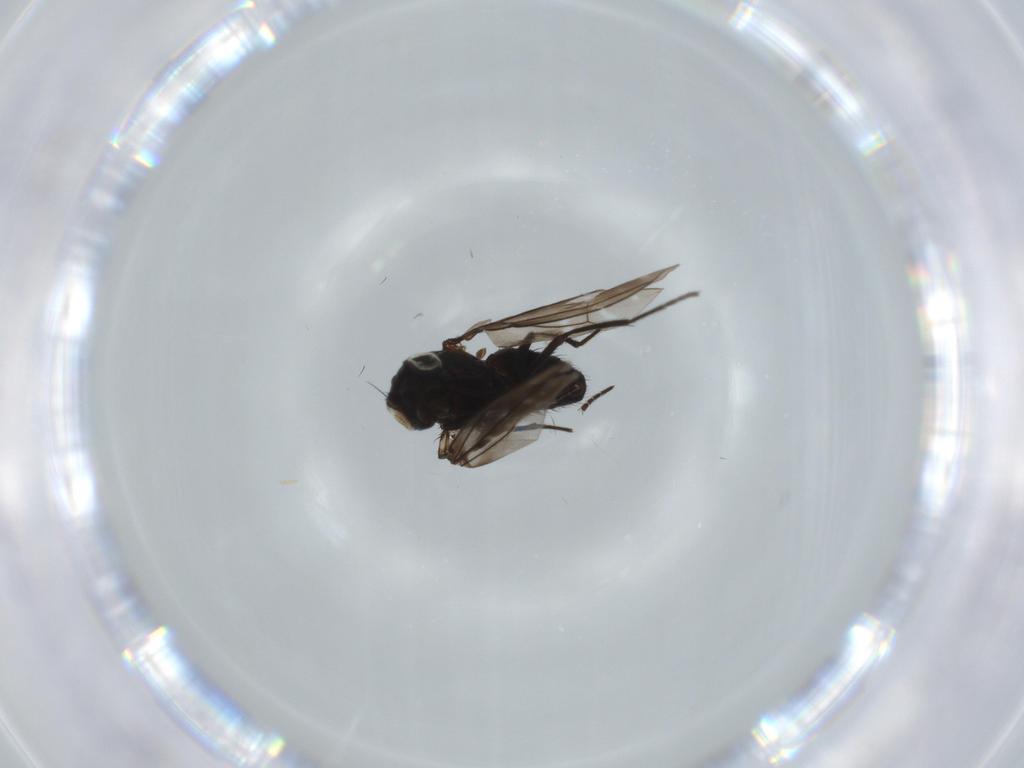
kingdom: Animalia
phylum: Arthropoda
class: Insecta
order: Diptera
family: Chironomidae
